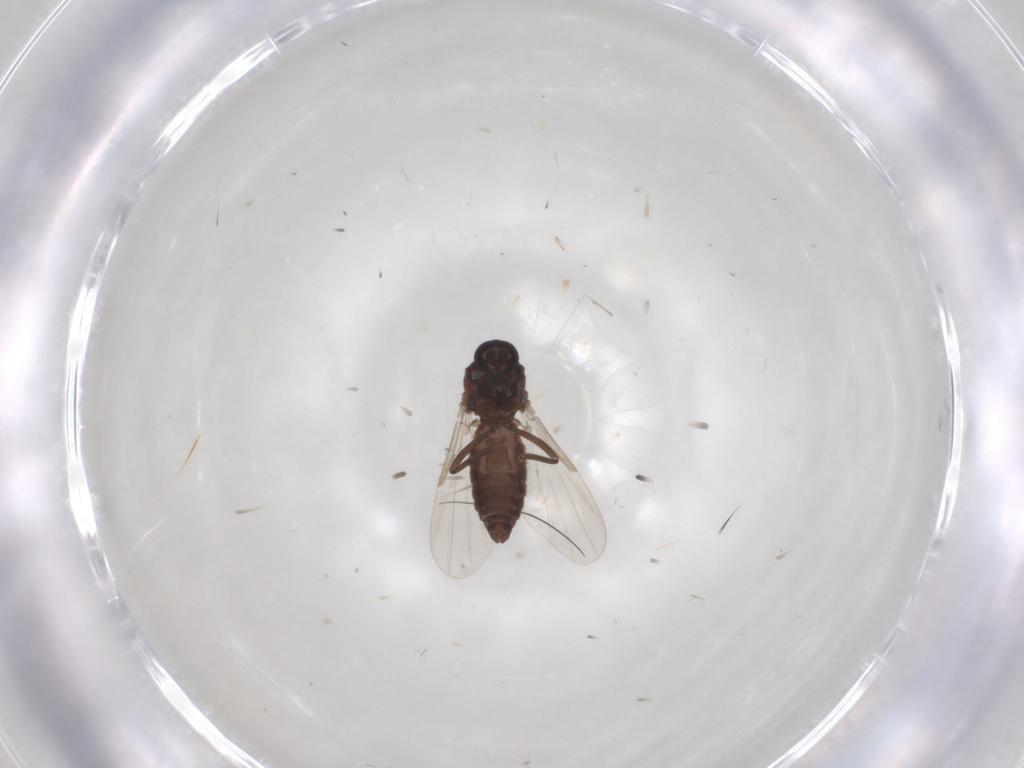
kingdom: Animalia
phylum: Arthropoda
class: Insecta
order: Diptera
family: Ceratopogonidae
